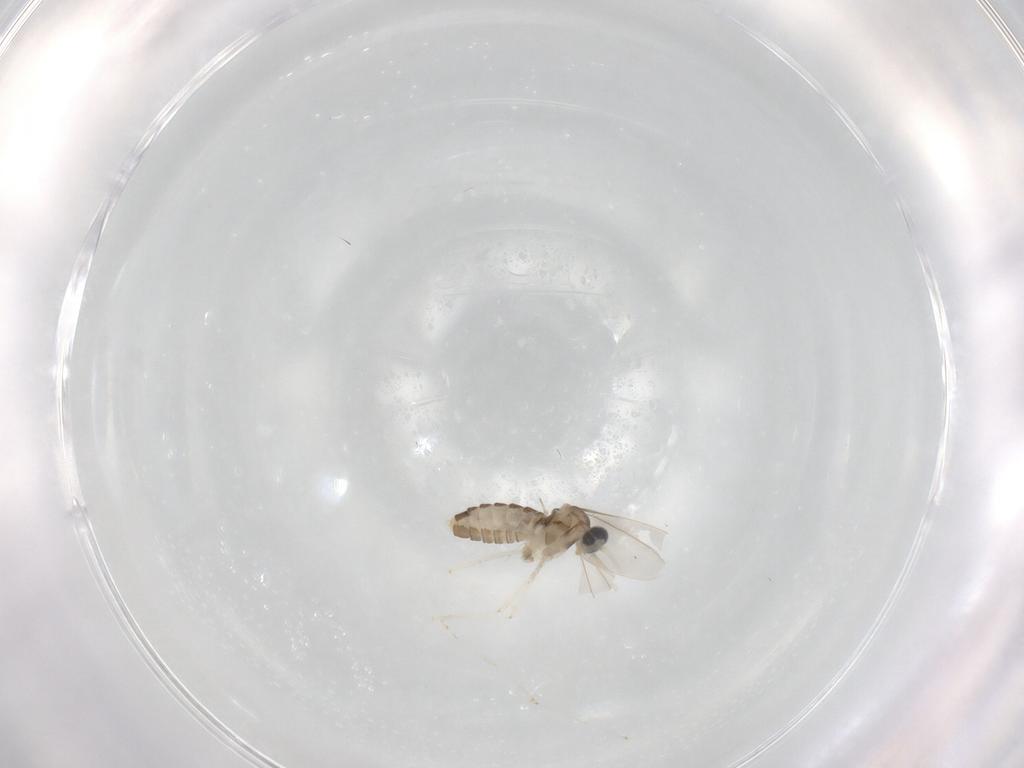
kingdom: Animalia
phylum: Arthropoda
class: Insecta
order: Diptera
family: Cecidomyiidae
